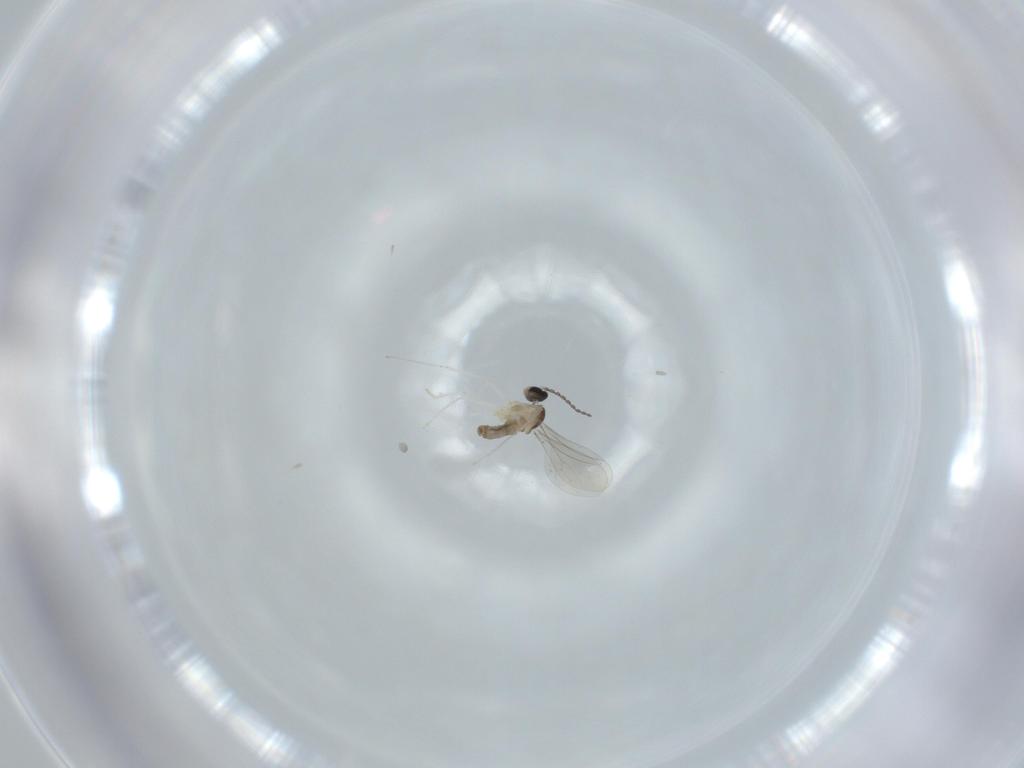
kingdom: Animalia
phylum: Arthropoda
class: Insecta
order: Diptera
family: Cecidomyiidae
